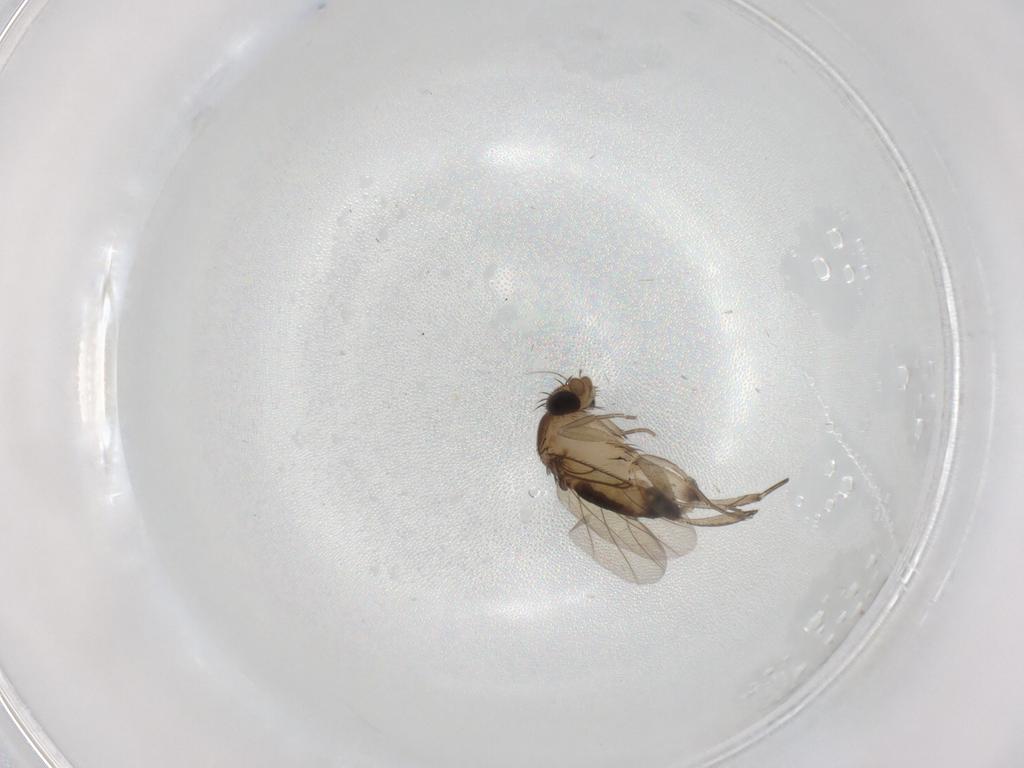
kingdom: Animalia
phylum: Arthropoda
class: Insecta
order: Diptera
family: Phoridae
